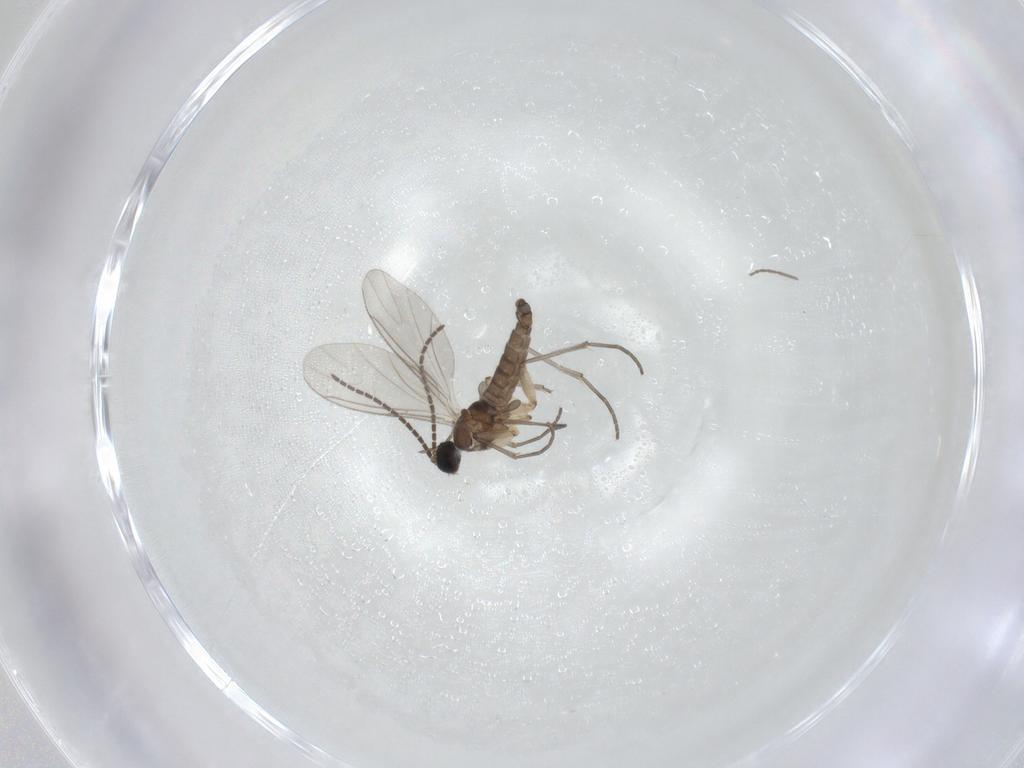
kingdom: Animalia
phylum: Arthropoda
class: Insecta
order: Diptera
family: Sciaridae
